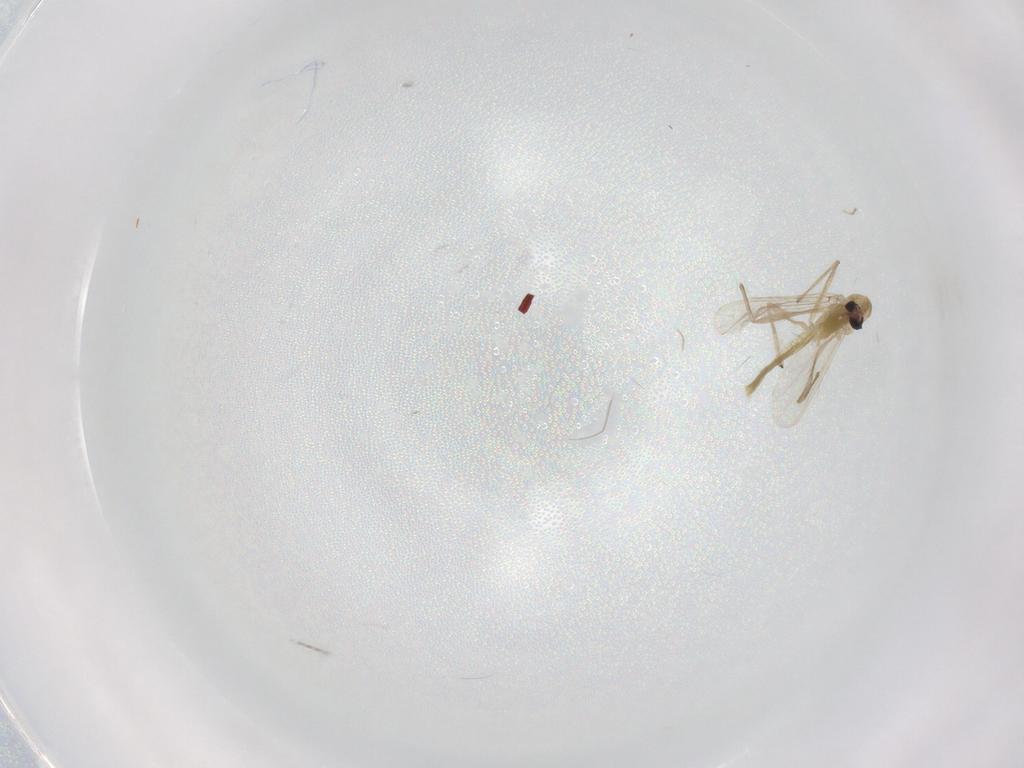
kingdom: Animalia
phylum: Arthropoda
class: Insecta
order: Diptera
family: Chironomidae
